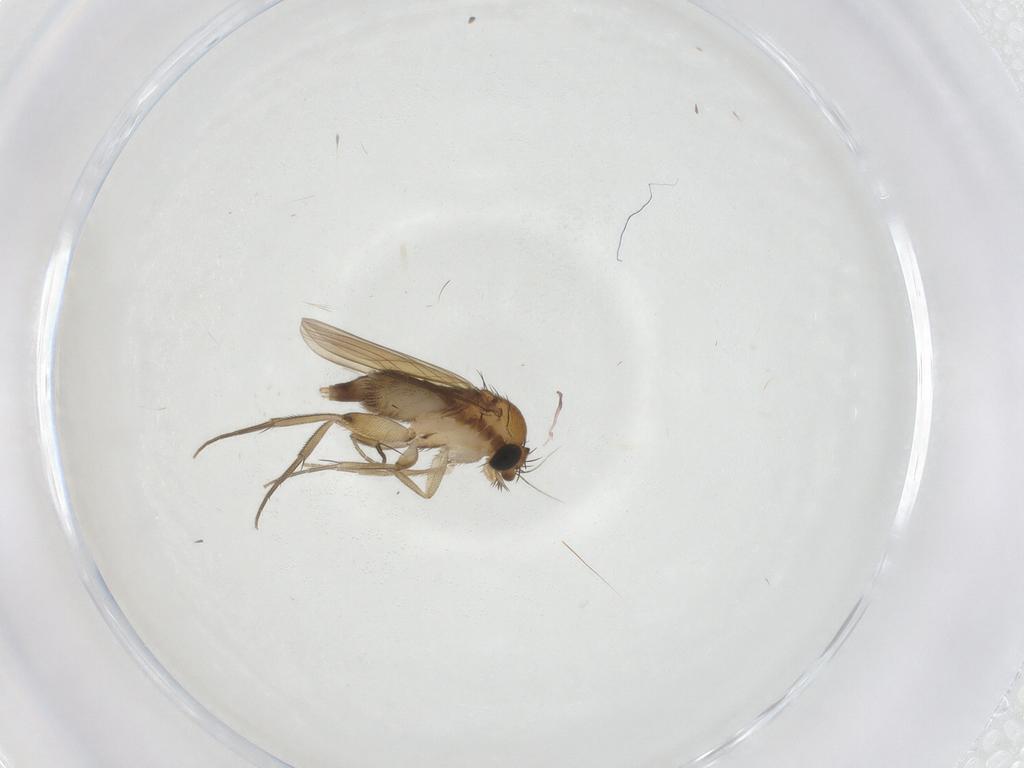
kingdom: Animalia
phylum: Arthropoda
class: Insecta
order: Diptera
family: Phoridae
